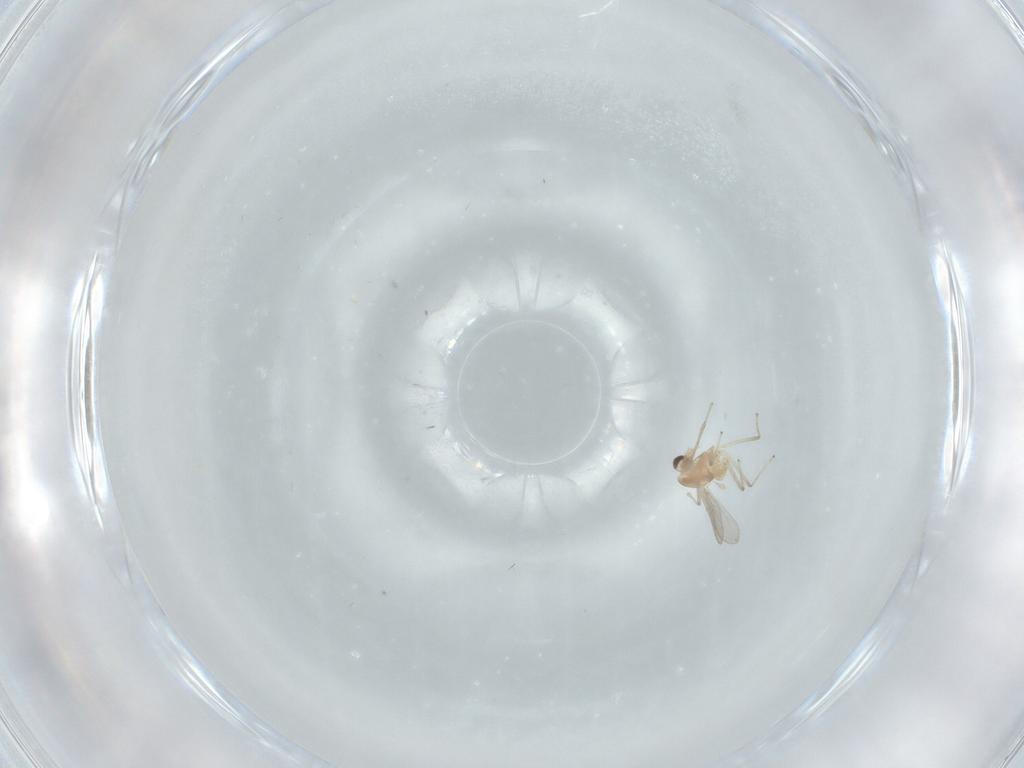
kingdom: Animalia
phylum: Arthropoda
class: Insecta
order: Diptera
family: Chironomidae
